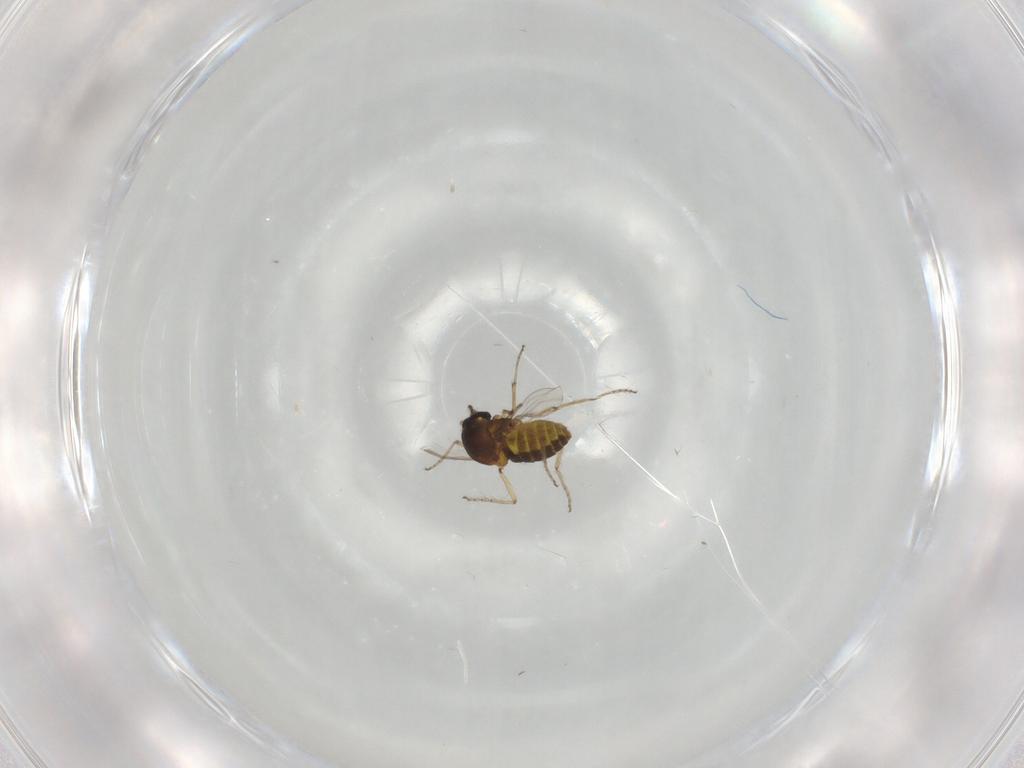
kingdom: Animalia
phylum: Arthropoda
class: Insecta
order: Diptera
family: Ceratopogonidae
